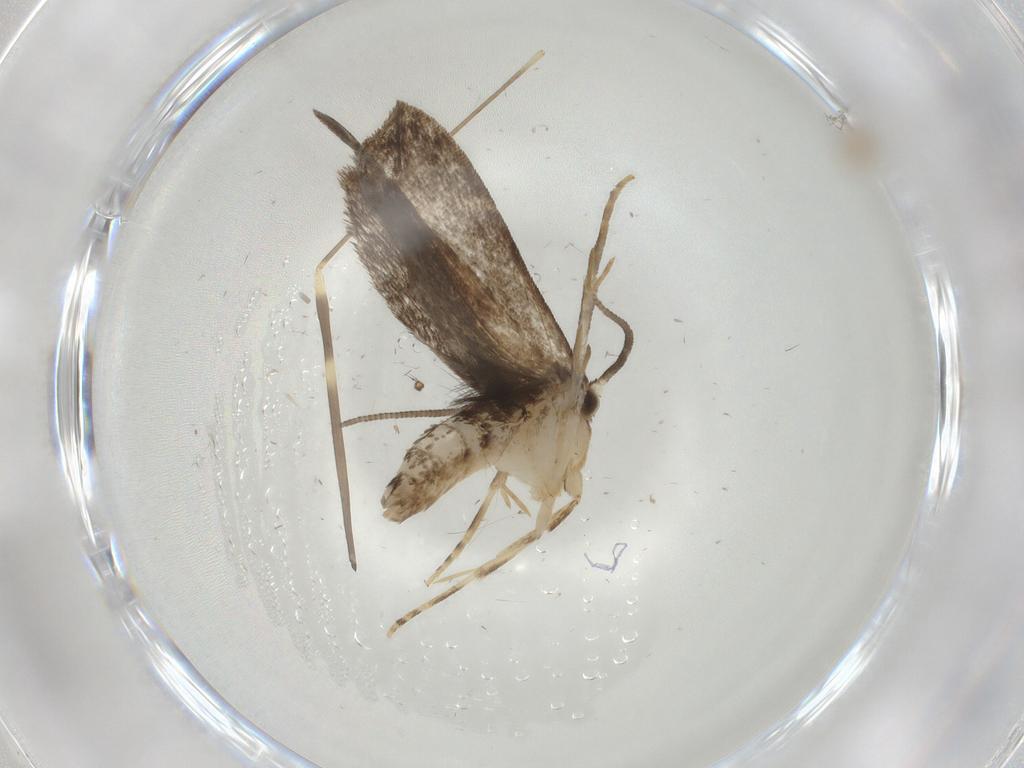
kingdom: Animalia
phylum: Arthropoda
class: Insecta
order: Lepidoptera
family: Dryadaulidae
